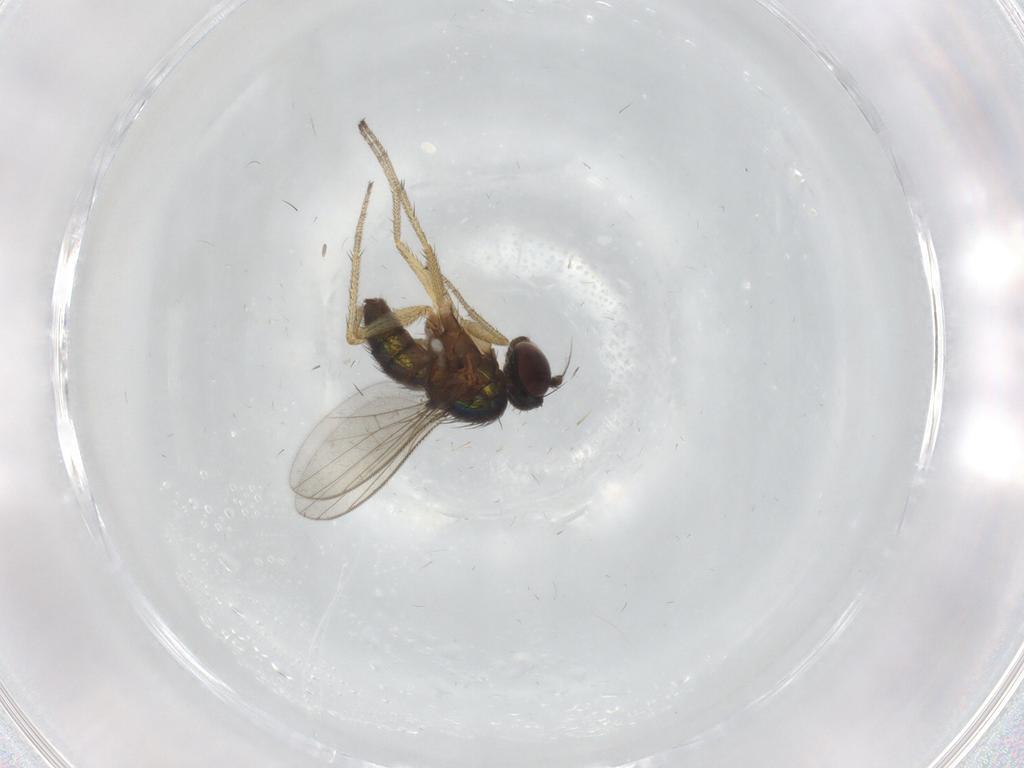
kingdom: Animalia
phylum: Arthropoda
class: Insecta
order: Diptera
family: Dolichopodidae
